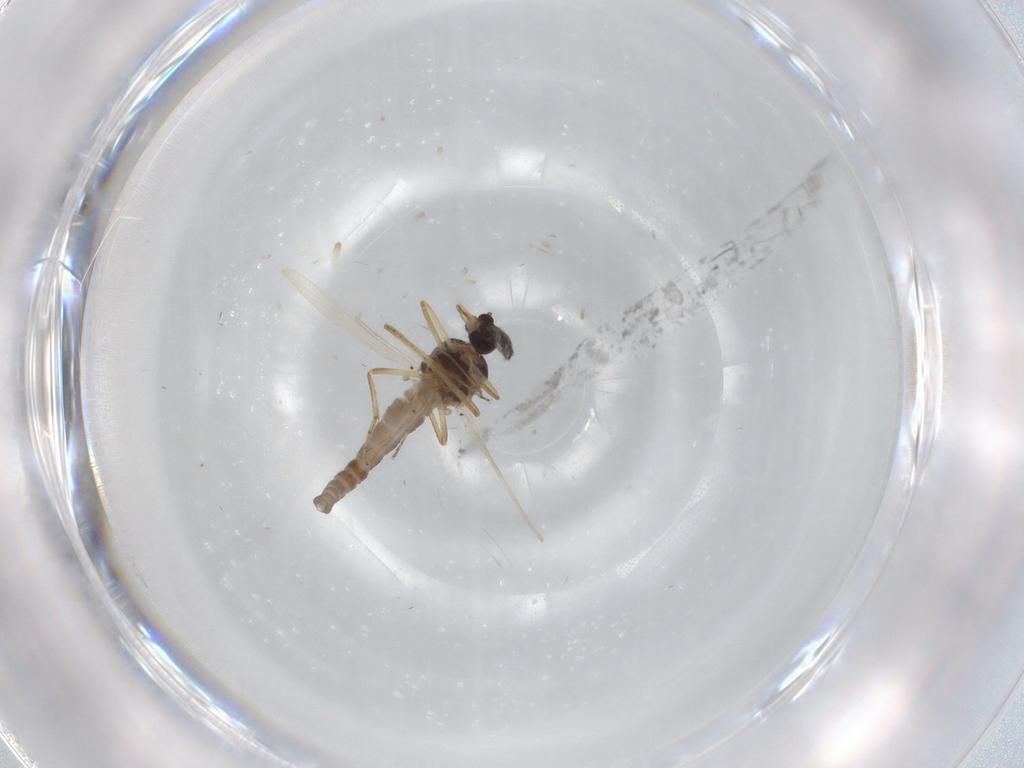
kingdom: Animalia
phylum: Arthropoda
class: Insecta
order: Diptera
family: Ceratopogonidae
